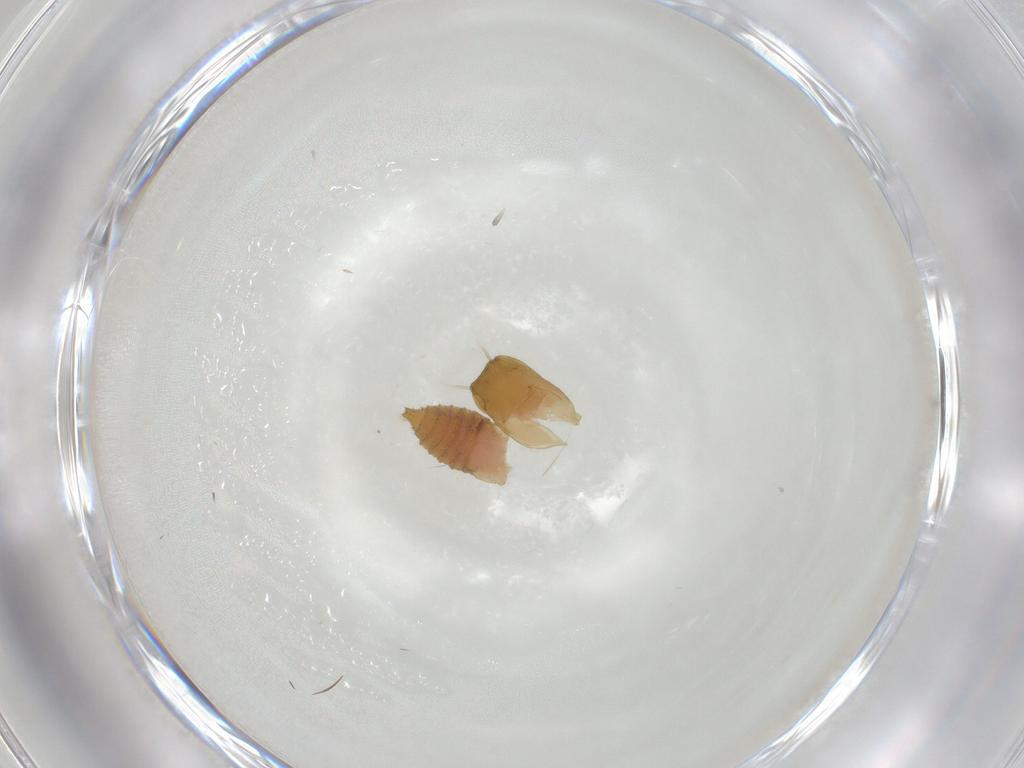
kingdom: Animalia
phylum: Arthropoda
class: Insecta
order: Diptera
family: Psychodidae
